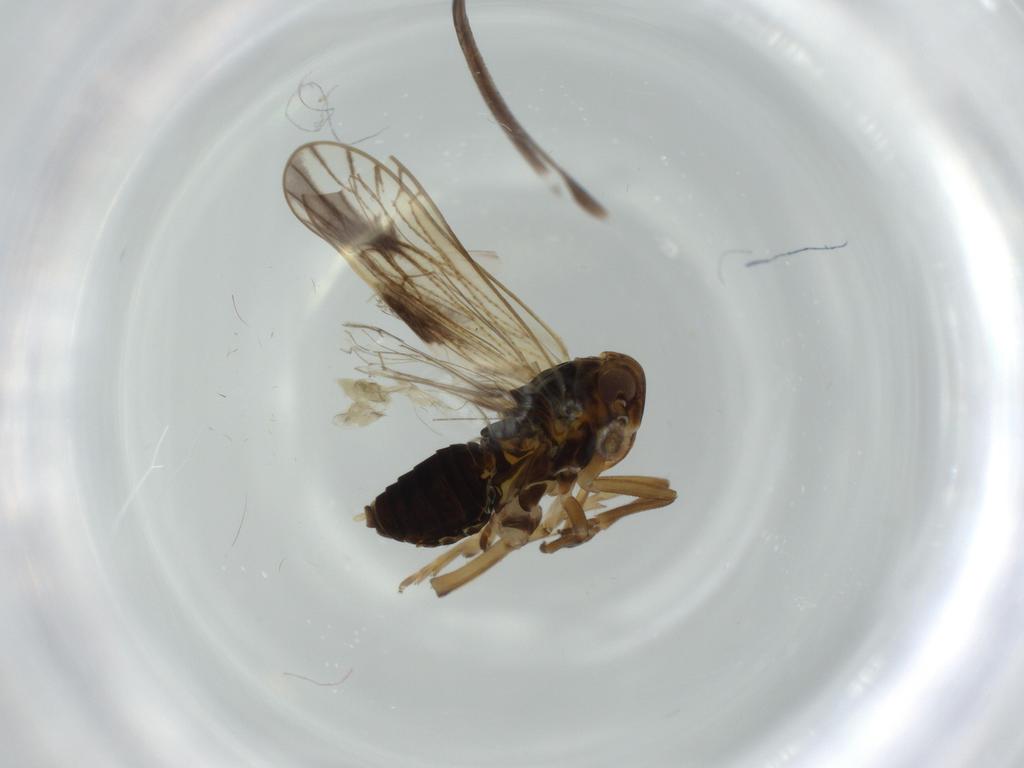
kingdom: Animalia
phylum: Arthropoda
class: Insecta
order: Hemiptera
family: Delphacidae
